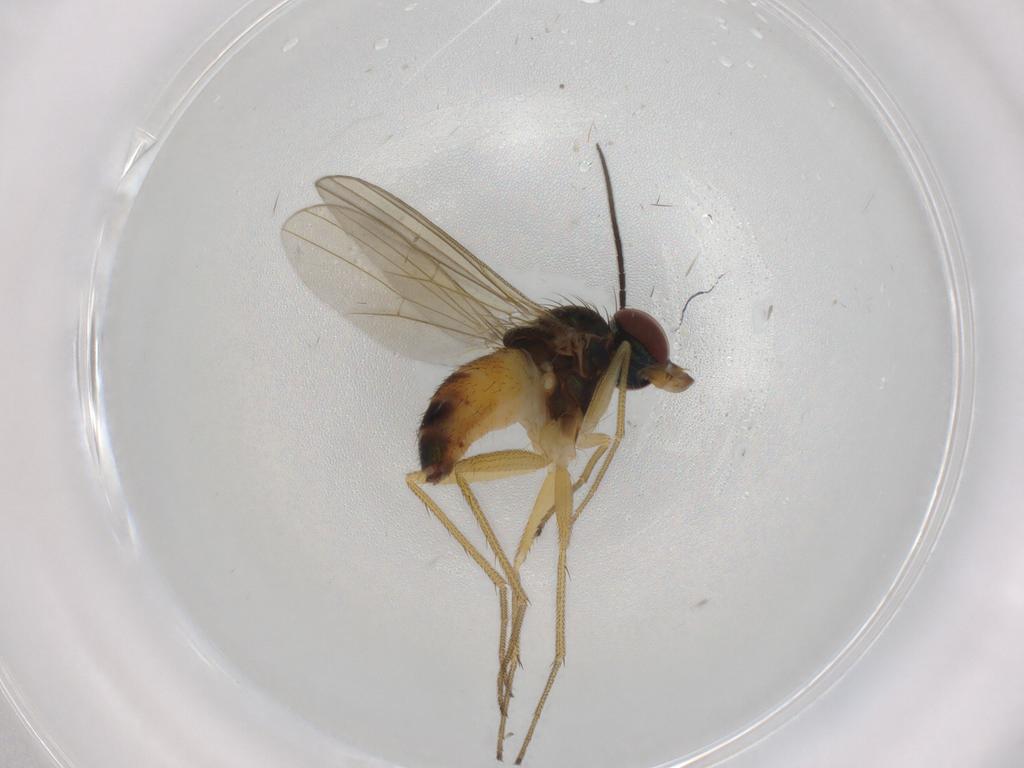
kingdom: Animalia
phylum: Arthropoda
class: Insecta
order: Diptera
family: Dolichopodidae
